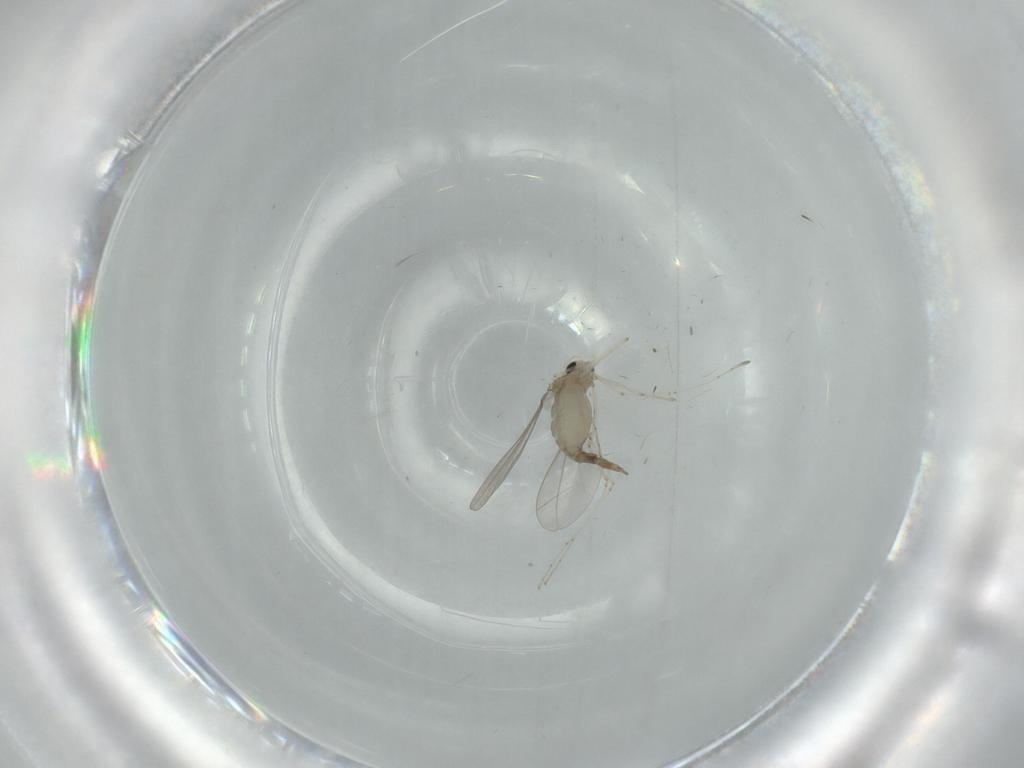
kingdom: Animalia
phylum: Arthropoda
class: Insecta
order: Diptera
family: Cecidomyiidae
